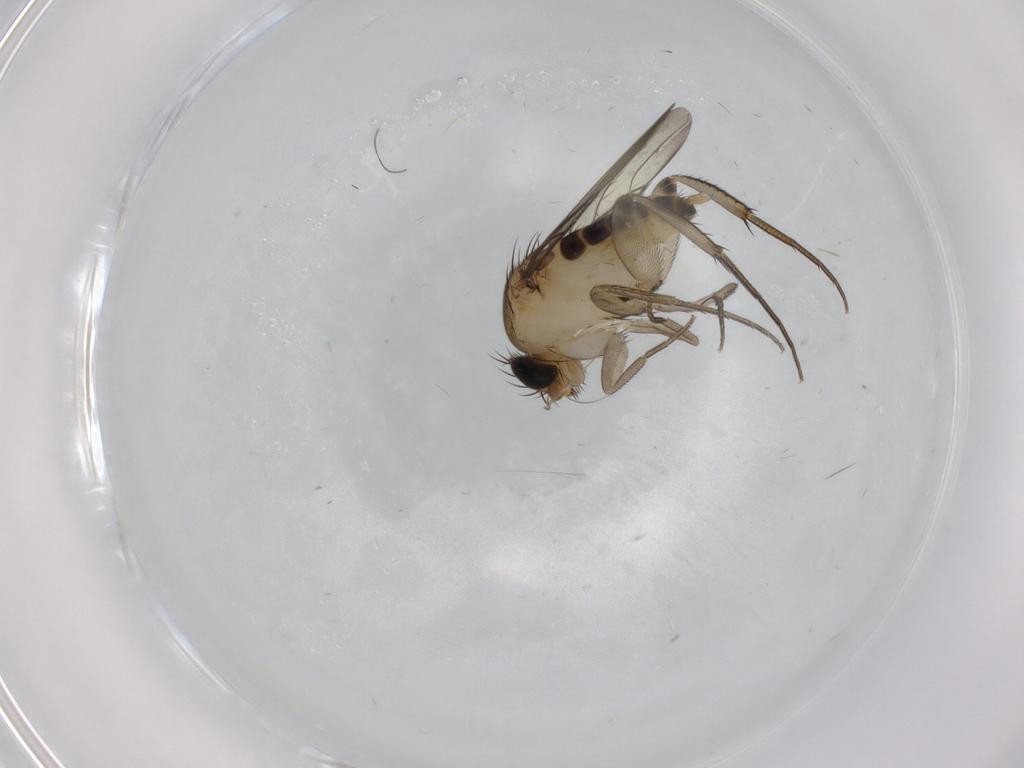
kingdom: Animalia
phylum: Arthropoda
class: Insecta
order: Diptera
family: Phoridae
